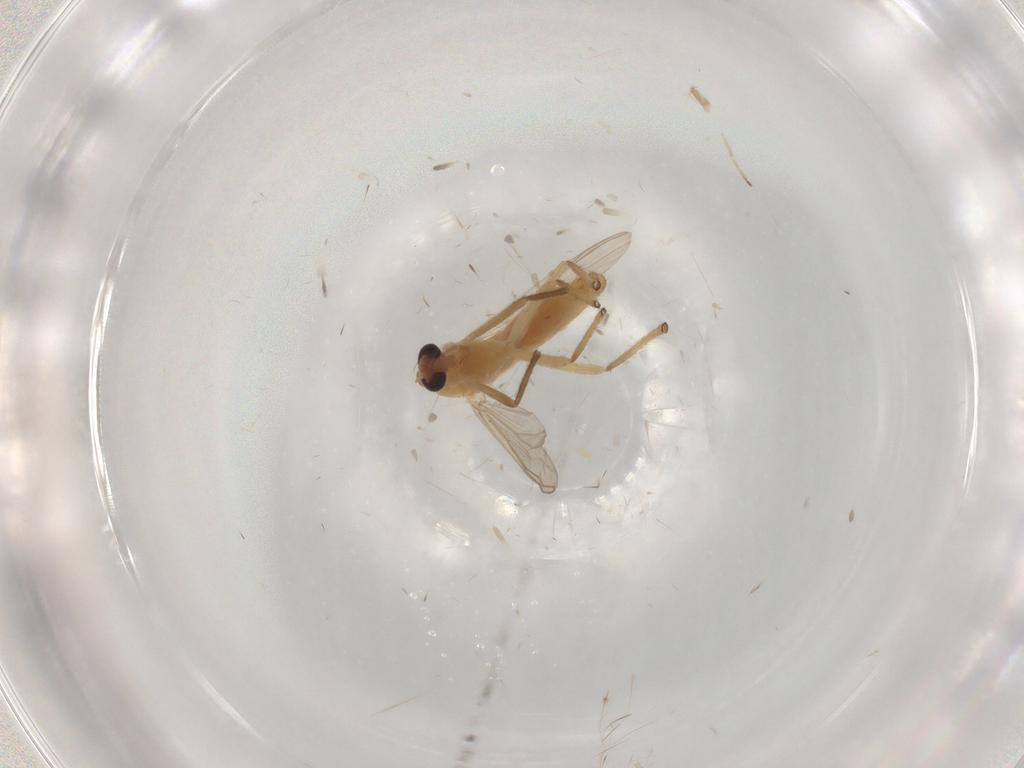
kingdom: Animalia
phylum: Arthropoda
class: Insecta
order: Diptera
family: Chironomidae
